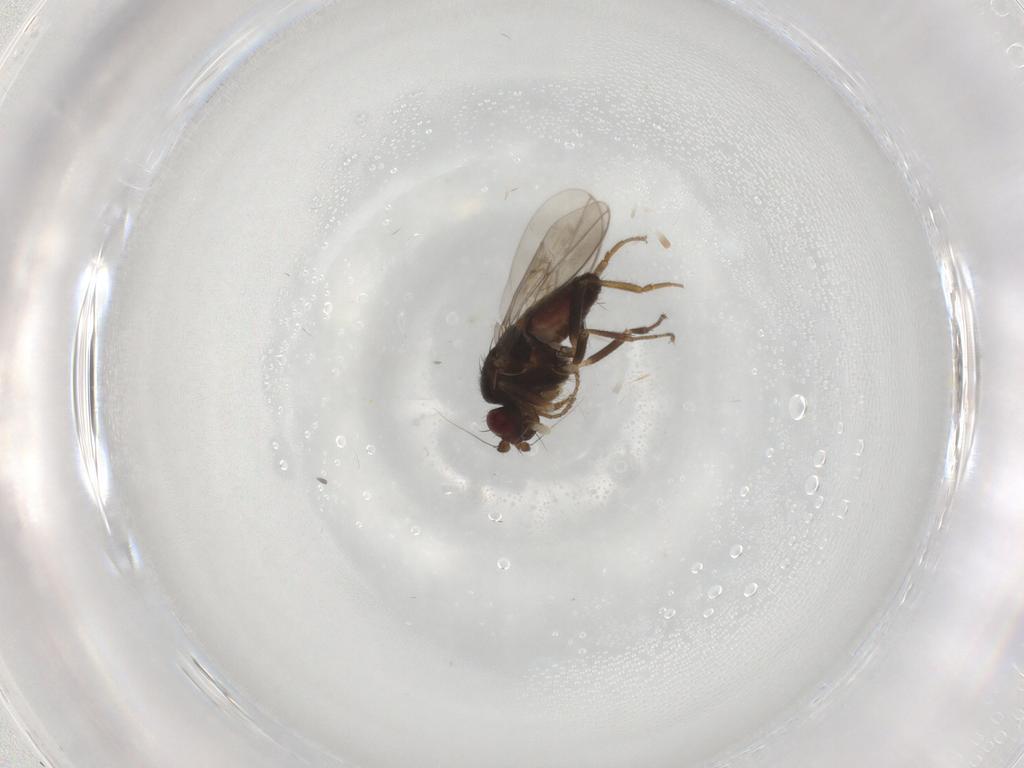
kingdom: Animalia
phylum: Arthropoda
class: Insecta
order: Diptera
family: Sphaeroceridae
